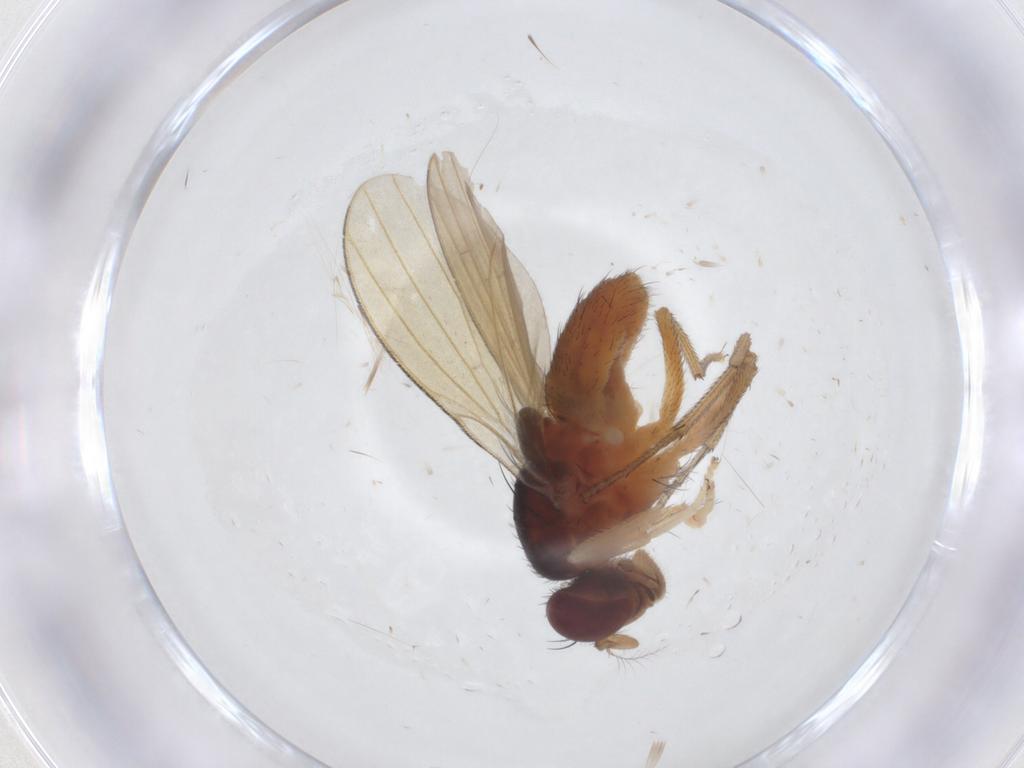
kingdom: Animalia
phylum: Arthropoda
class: Insecta
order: Diptera
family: Lauxaniidae
